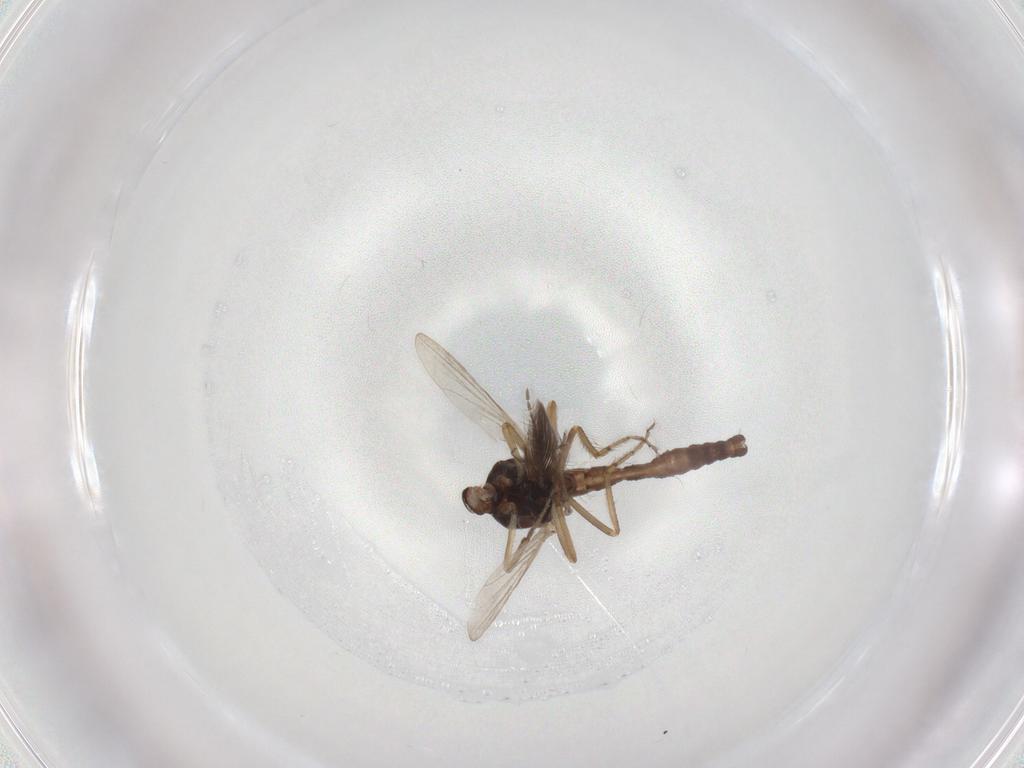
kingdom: Animalia
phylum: Arthropoda
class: Insecta
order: Diptera
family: Ceratopogonidae
